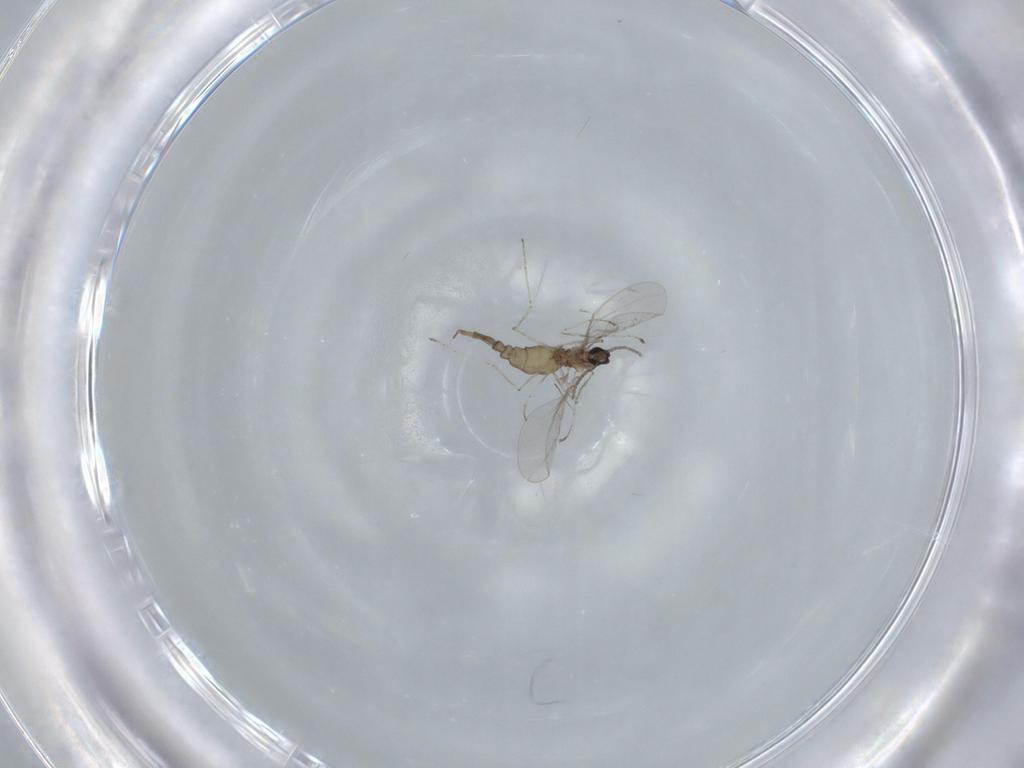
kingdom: Animalia
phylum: Arthropoda
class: Insecta
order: Diptera
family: Cecidomyiidae
